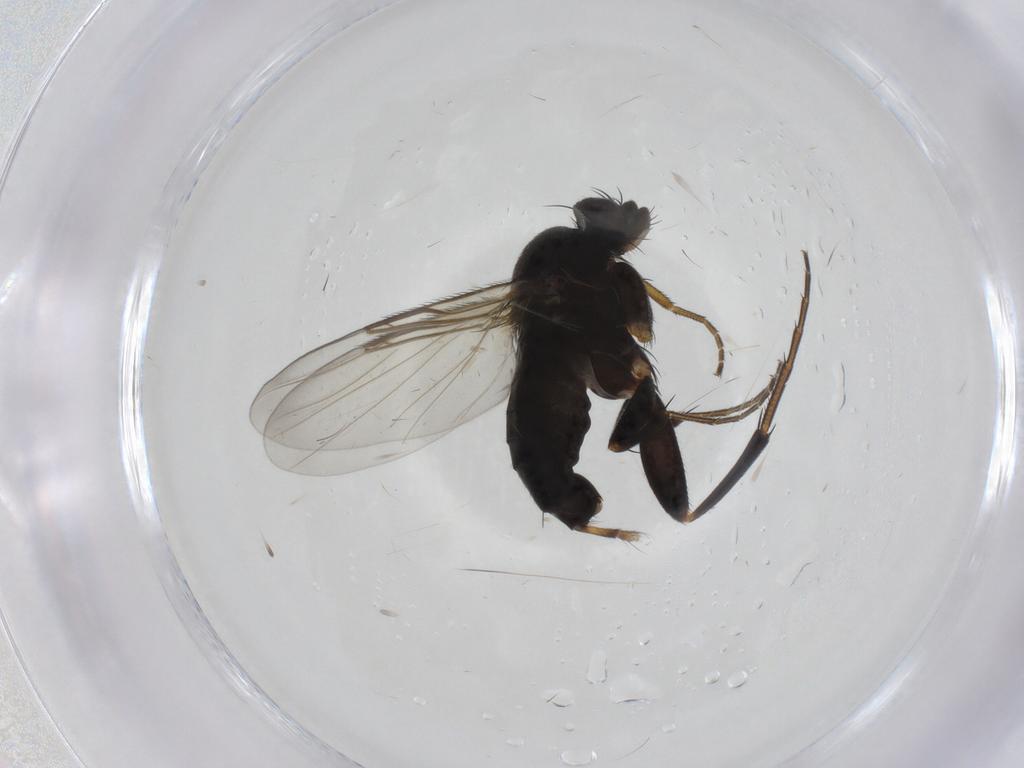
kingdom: Animalia
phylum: Arthropoda
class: Insecta
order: Diptera
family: Phoridae
